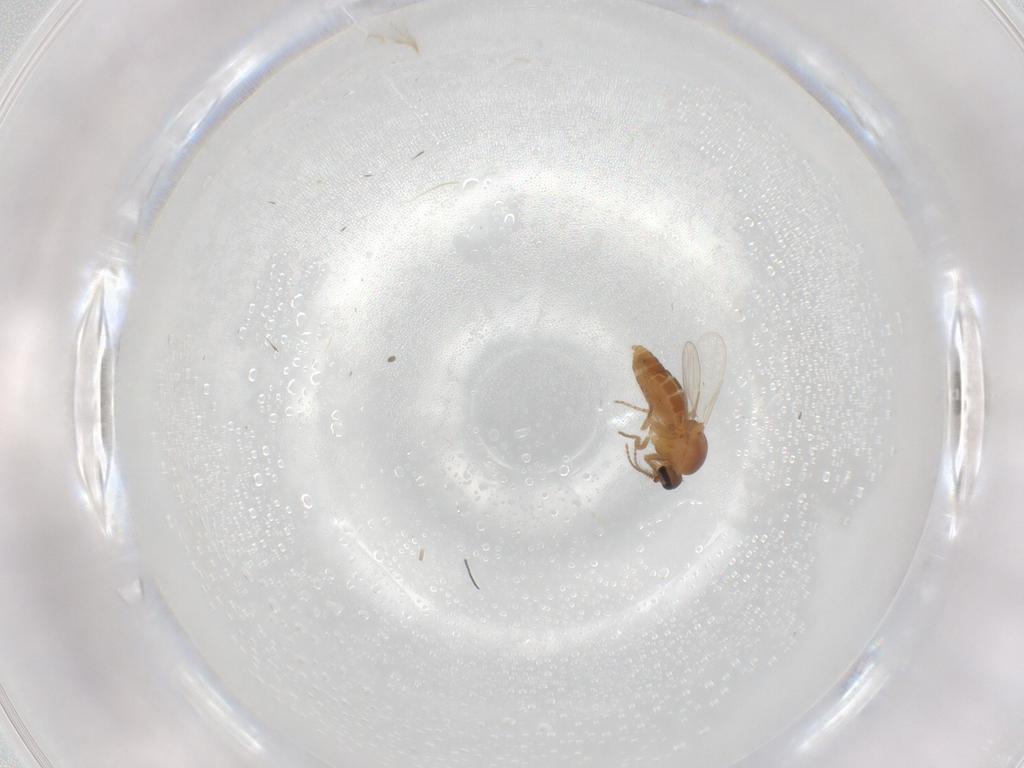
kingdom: Animalia
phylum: Arthropoda
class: Insecta
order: Diptera
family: Ceratopogonidae
